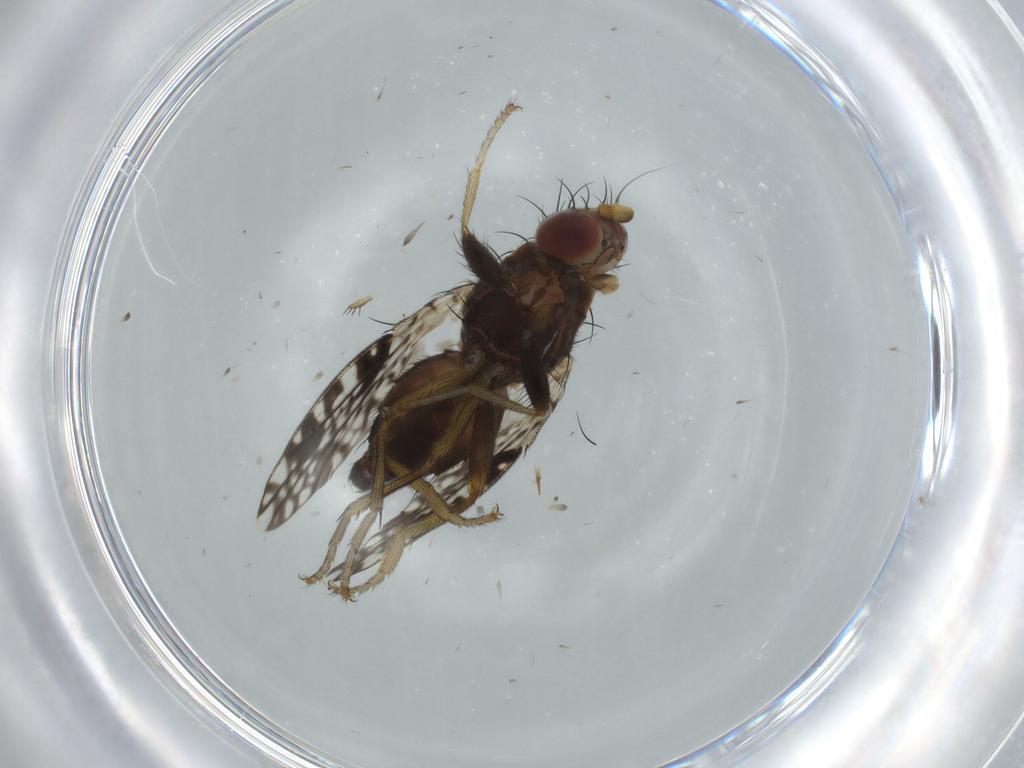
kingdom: Animalia
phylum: Arthropoda
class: Insecta
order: Diptera
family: Tephritidae
